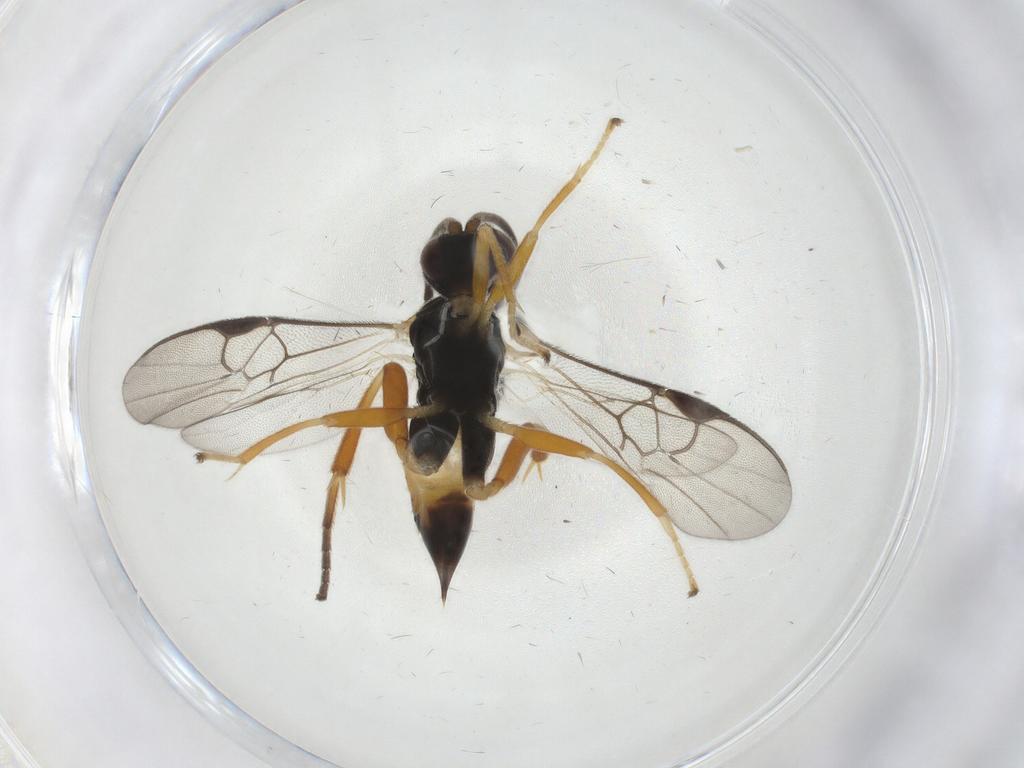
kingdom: Animalia
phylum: Arthropoda
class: Insecta
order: Hymenoptera
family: Braconidae
